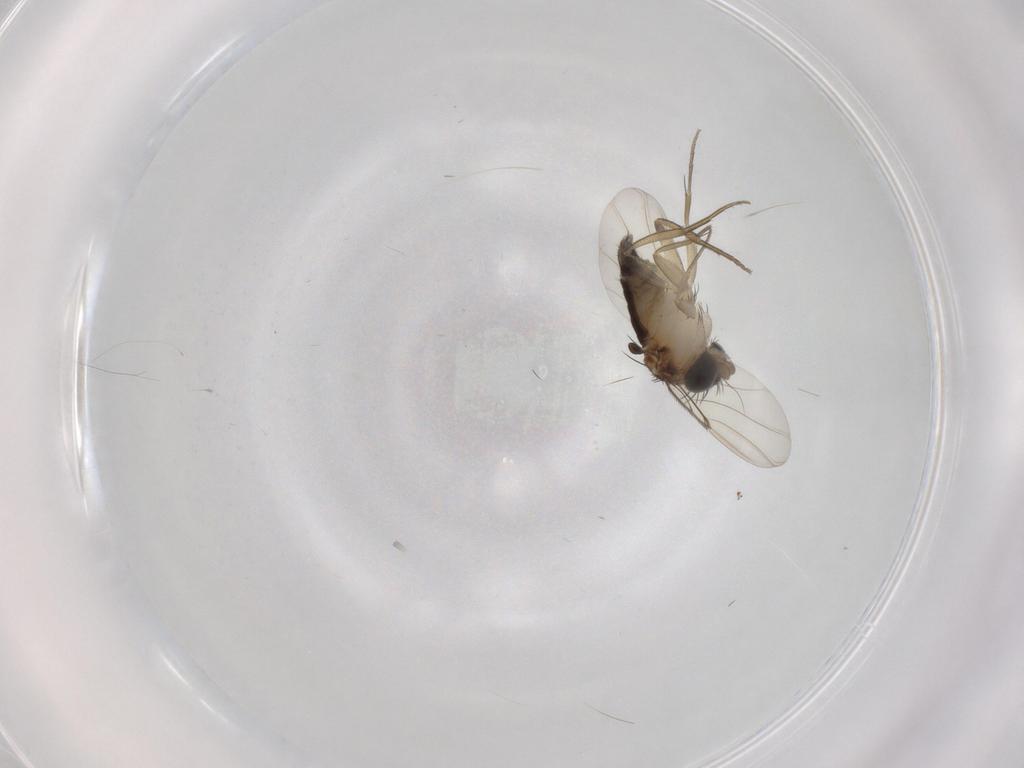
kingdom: Animalia
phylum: Arthropoda
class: Insecta
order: Diptera
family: Phoridae
